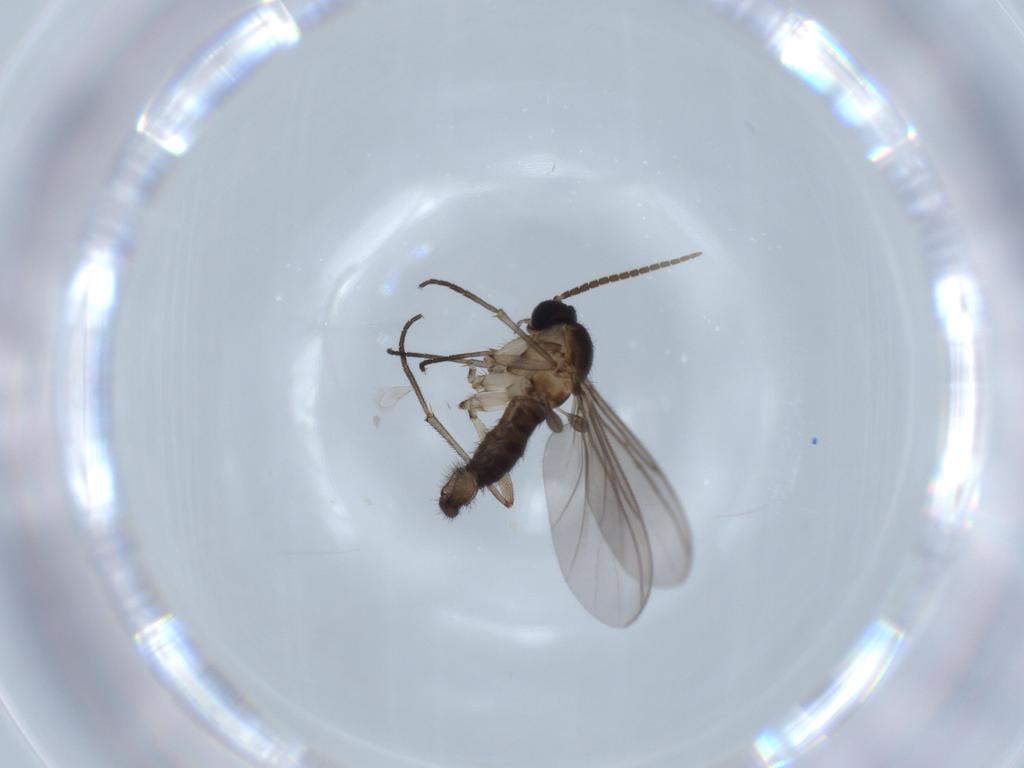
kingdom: Animalia
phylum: Arthropoda
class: Insecta
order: Diptera
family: Sciaridae
